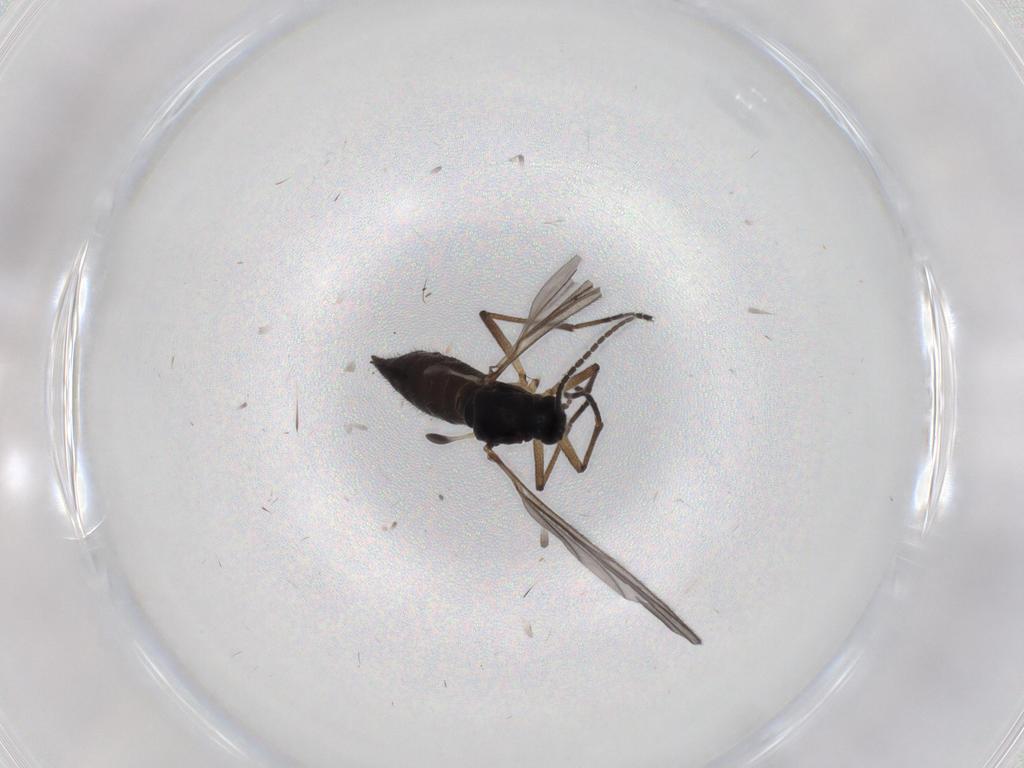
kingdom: Animalia
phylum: Arthropoda
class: Insecta
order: Diptera
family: Sciaridae
